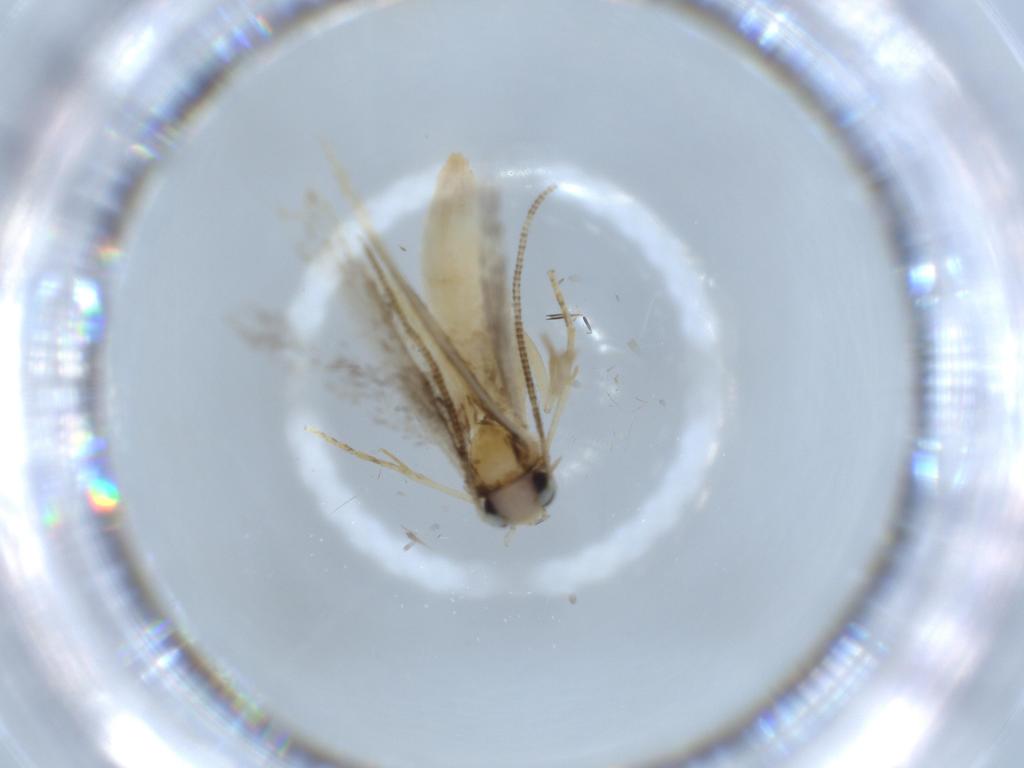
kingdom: Animalia
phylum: Arthropoda
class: Insecta
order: Lepidoptera
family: Tineidae
